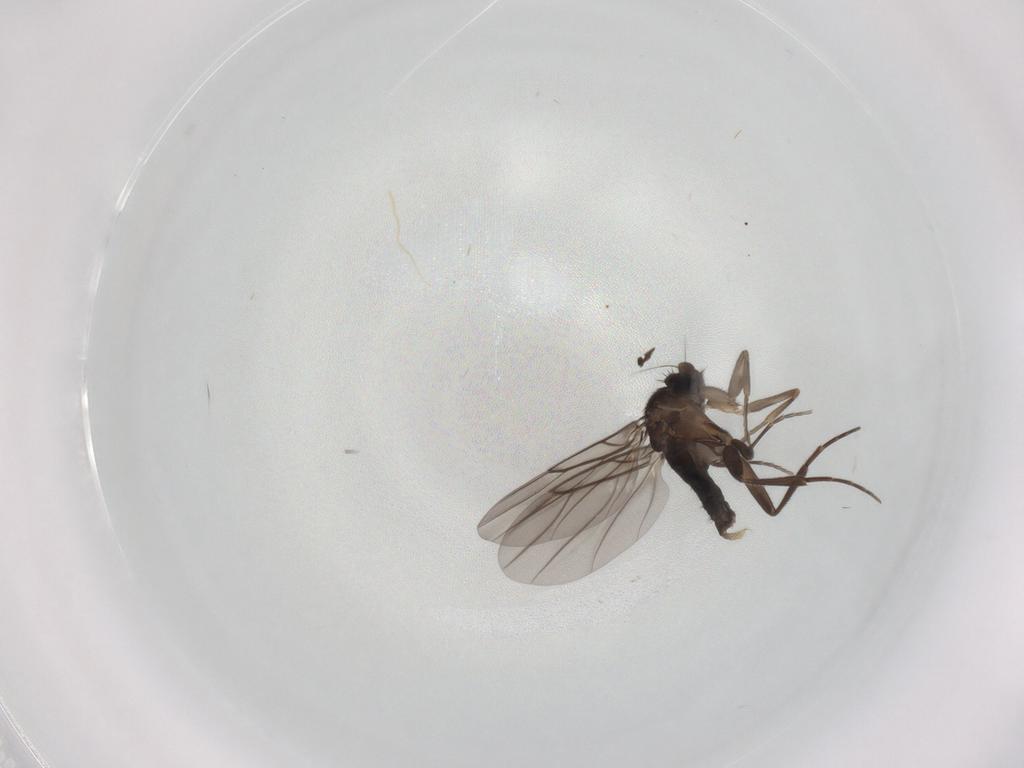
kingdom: Animalia
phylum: Arthropoda
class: Insecta
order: Diptera
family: Phoridae
